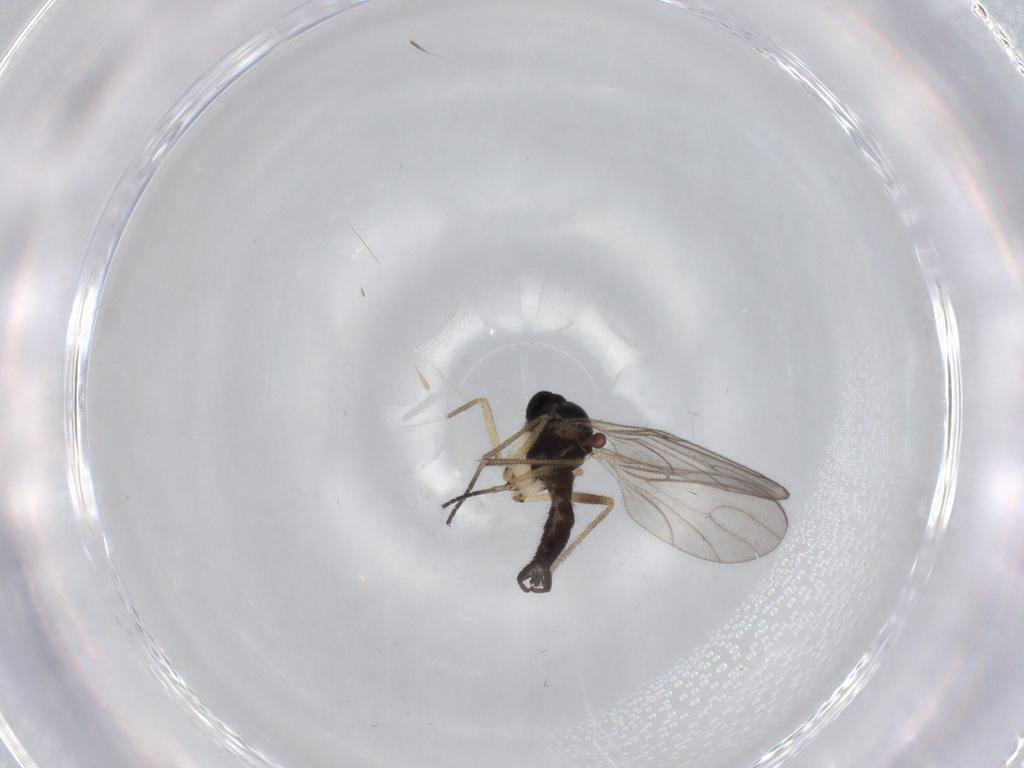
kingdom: Animalia
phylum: Arthropoda
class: Insecta
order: Diptera
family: Sciaridae
